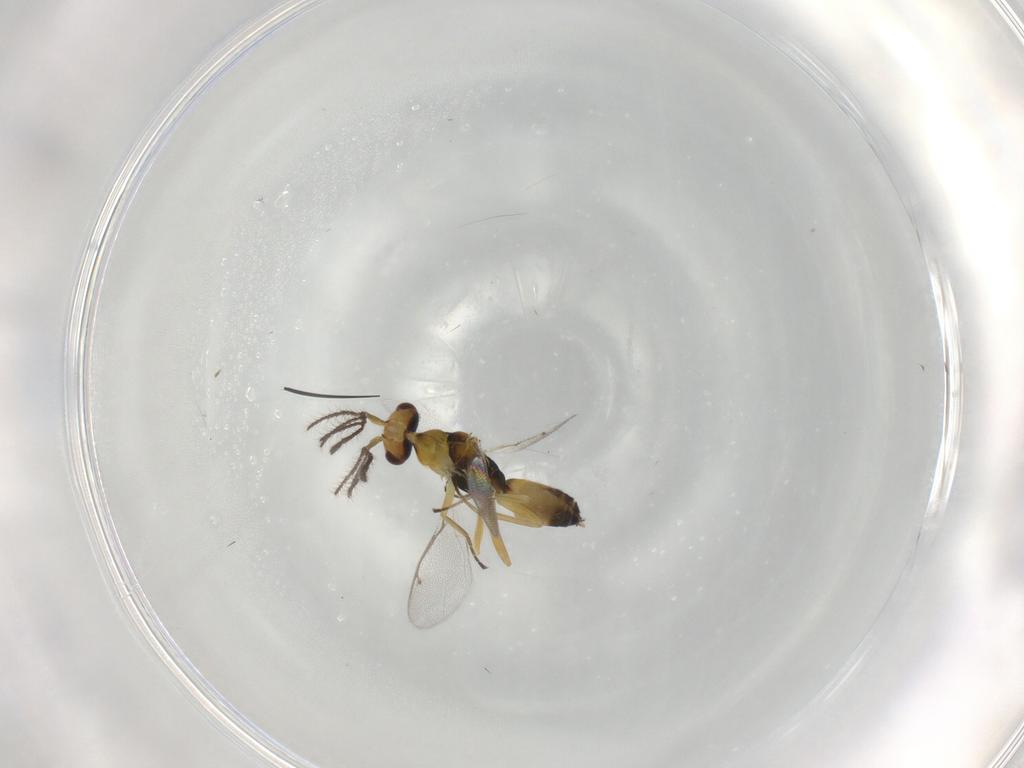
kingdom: Animalia
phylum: Arthropoda
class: Insecta
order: Hymenoptera
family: Eulophidae
